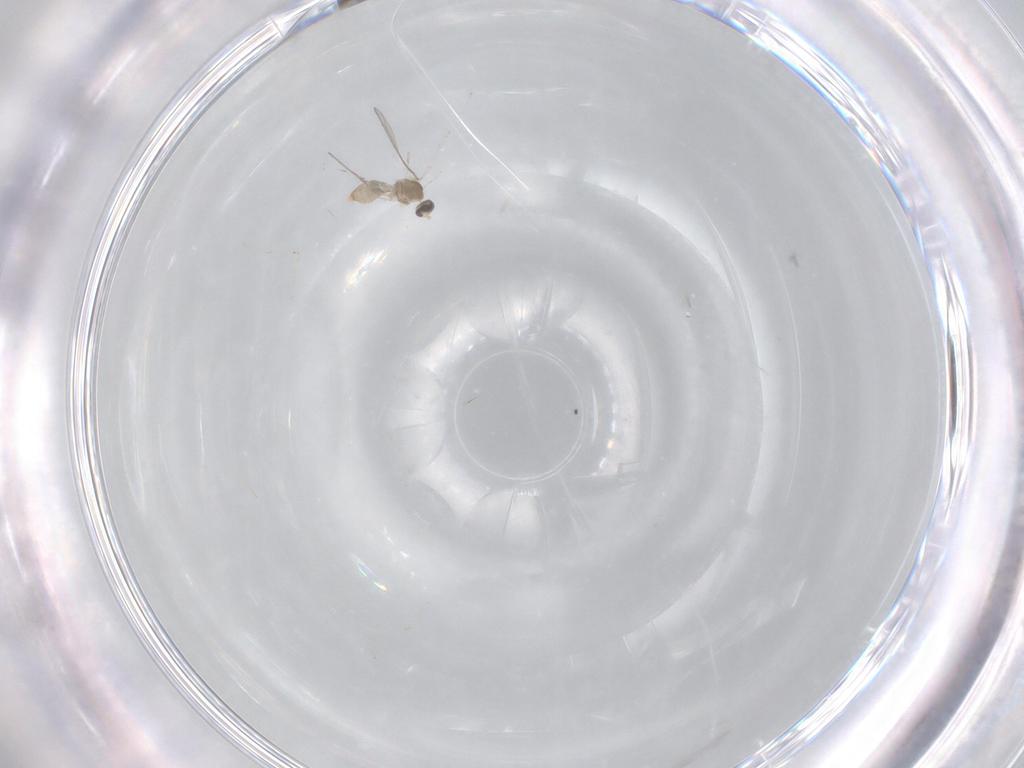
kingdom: Animalia
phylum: Arthropoda
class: Insecta
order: Diptera
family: Cecidomyiidae
